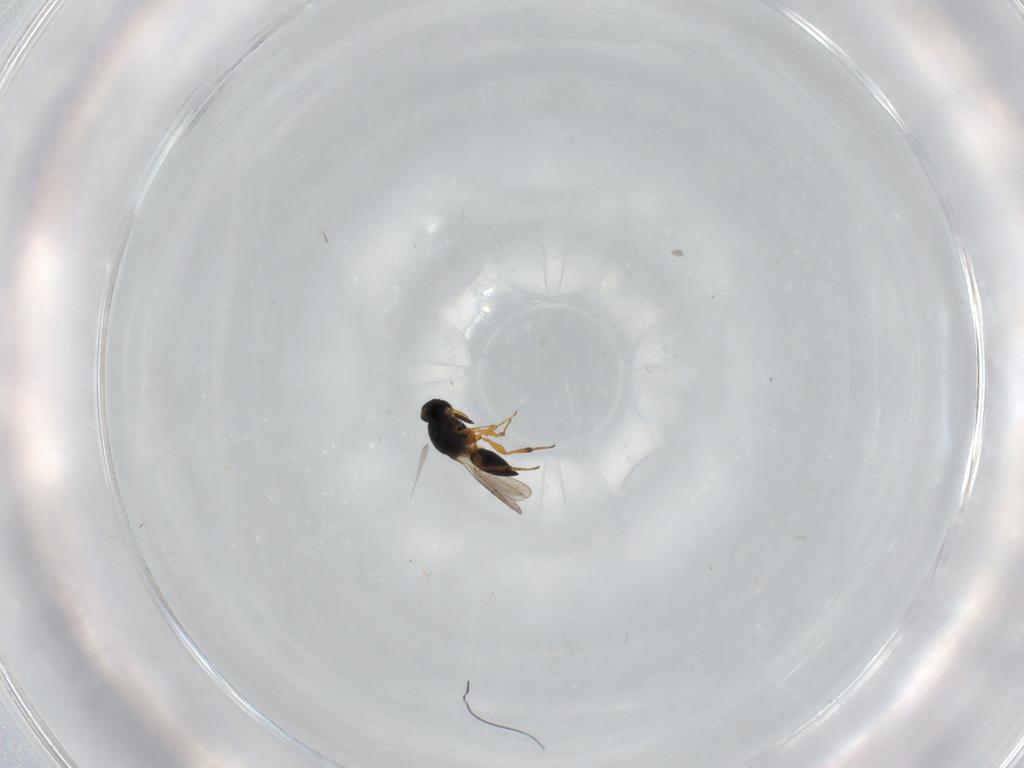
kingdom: Animalia
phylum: Arthropoda
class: Insecta
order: Hymenoptera
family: Platygastridae
